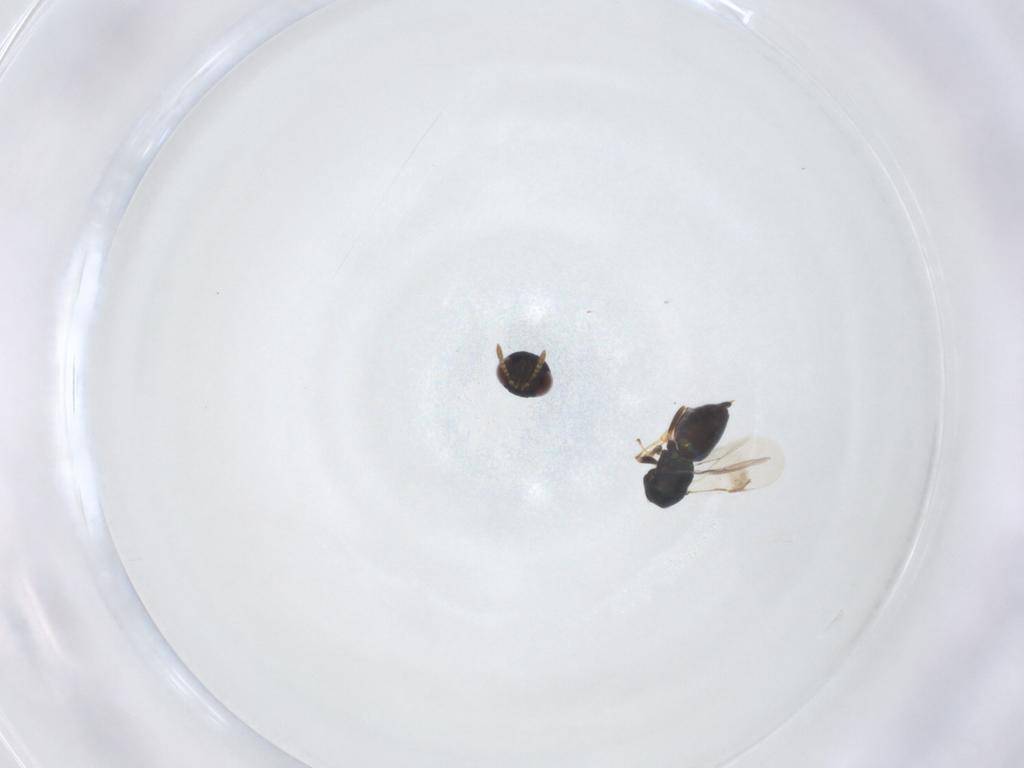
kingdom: Animalia
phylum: Arthropoda
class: Insecta
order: Hymenoptera
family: Pteromalidae
